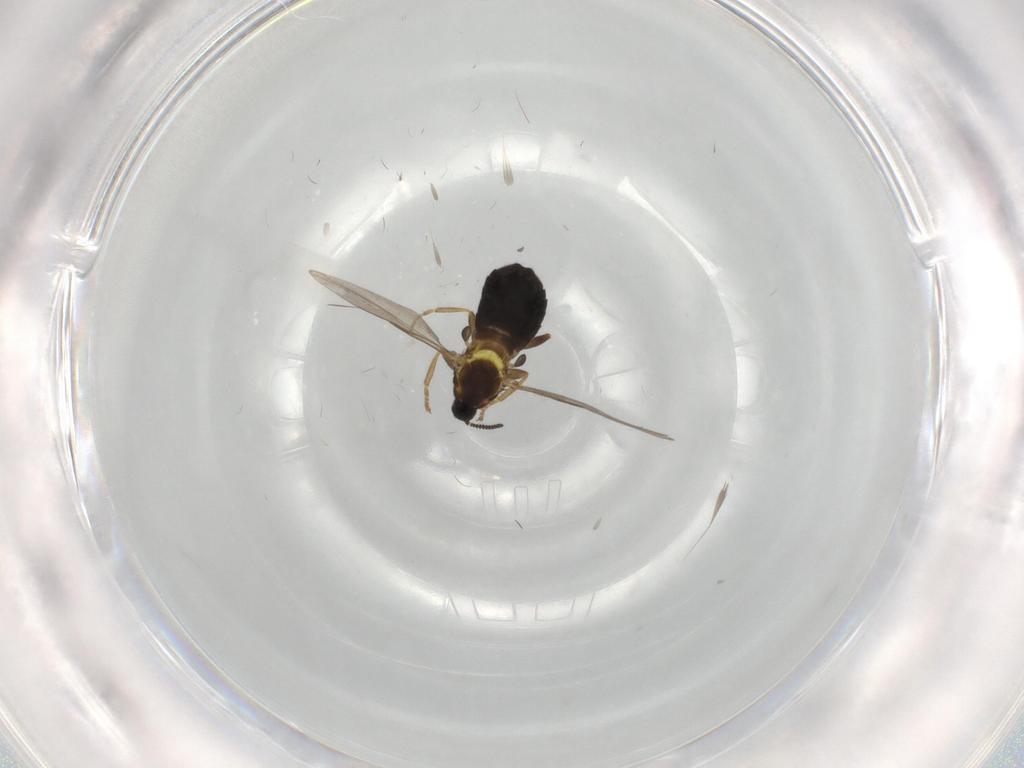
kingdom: Animalia
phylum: Arthropoda
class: Insecta
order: Diptera
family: Scatopsidae
